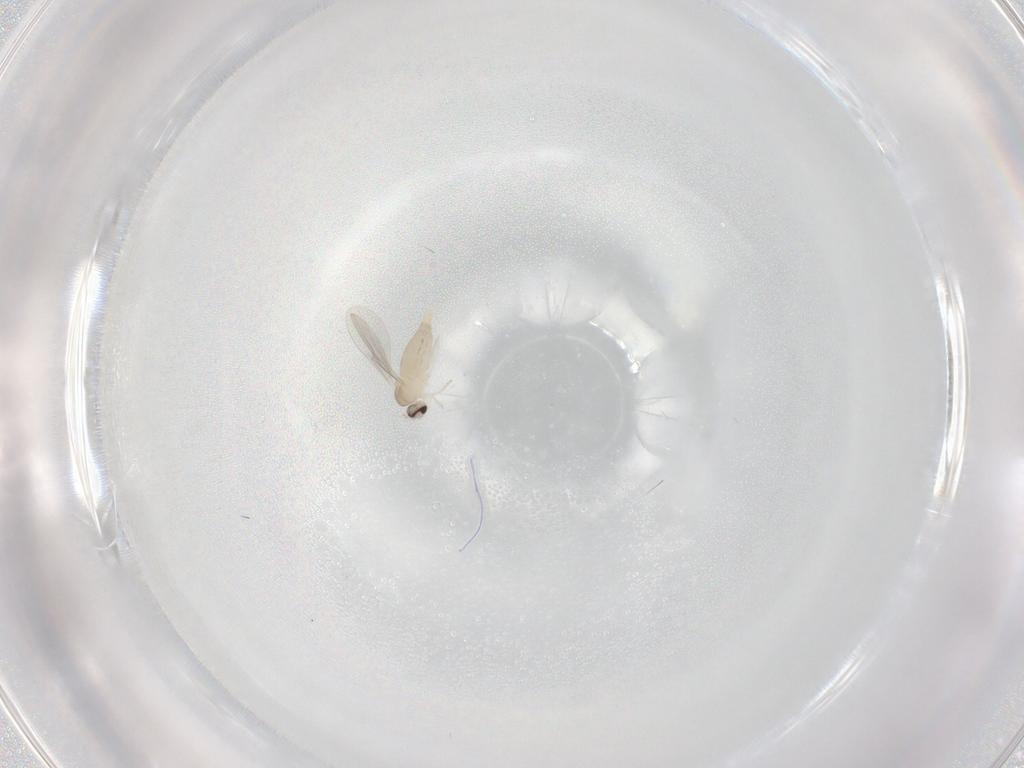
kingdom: Animalia
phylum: Arthropoda
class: Insecta
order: Diptera
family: Cecidomyiidae
